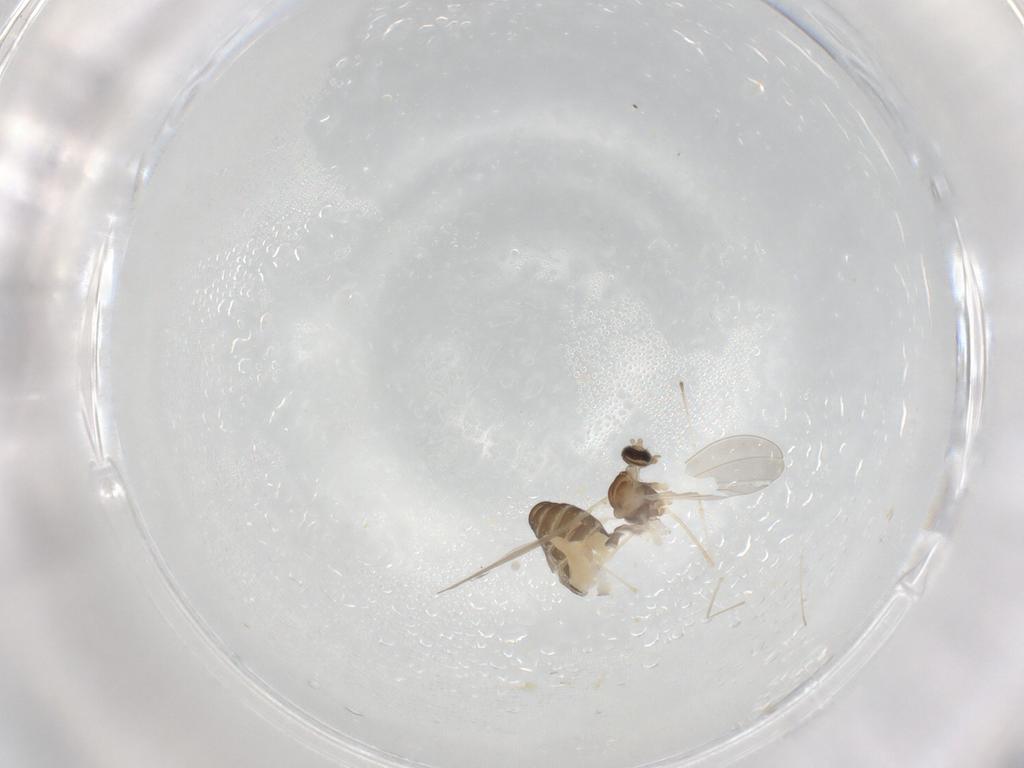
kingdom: Animalia
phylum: Arthropoda
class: Insecta
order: Diptera
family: Cecidomyiidae
